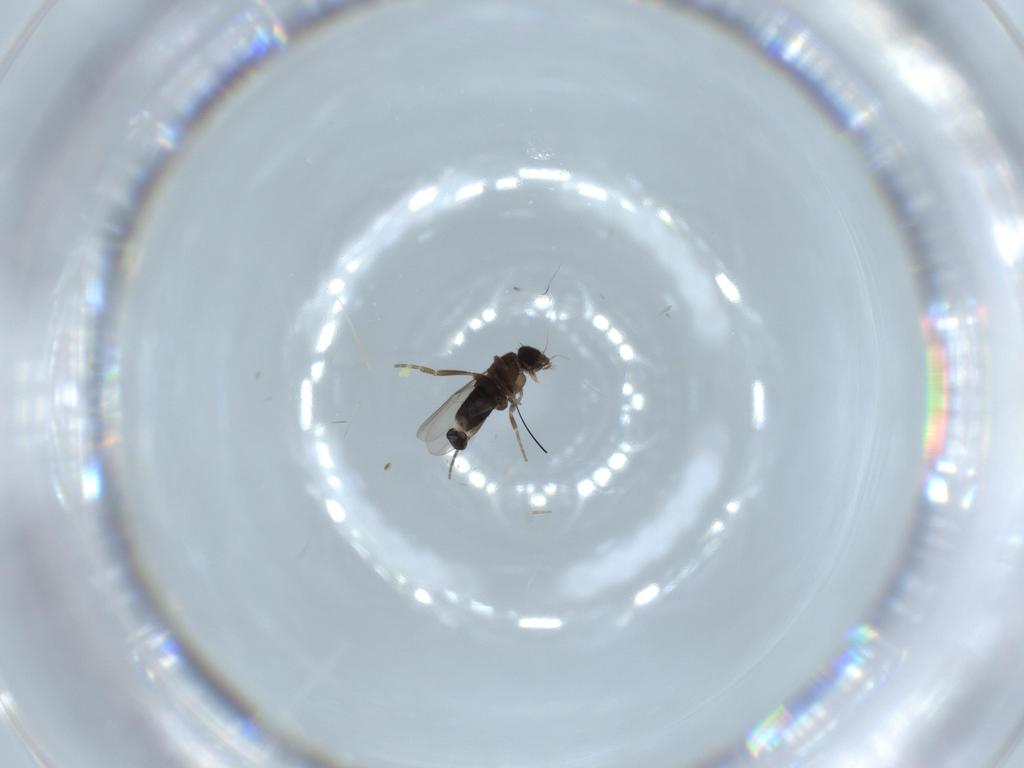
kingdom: Animalia
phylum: Arthropoda
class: Insecta
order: Diptera
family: Phoridae
